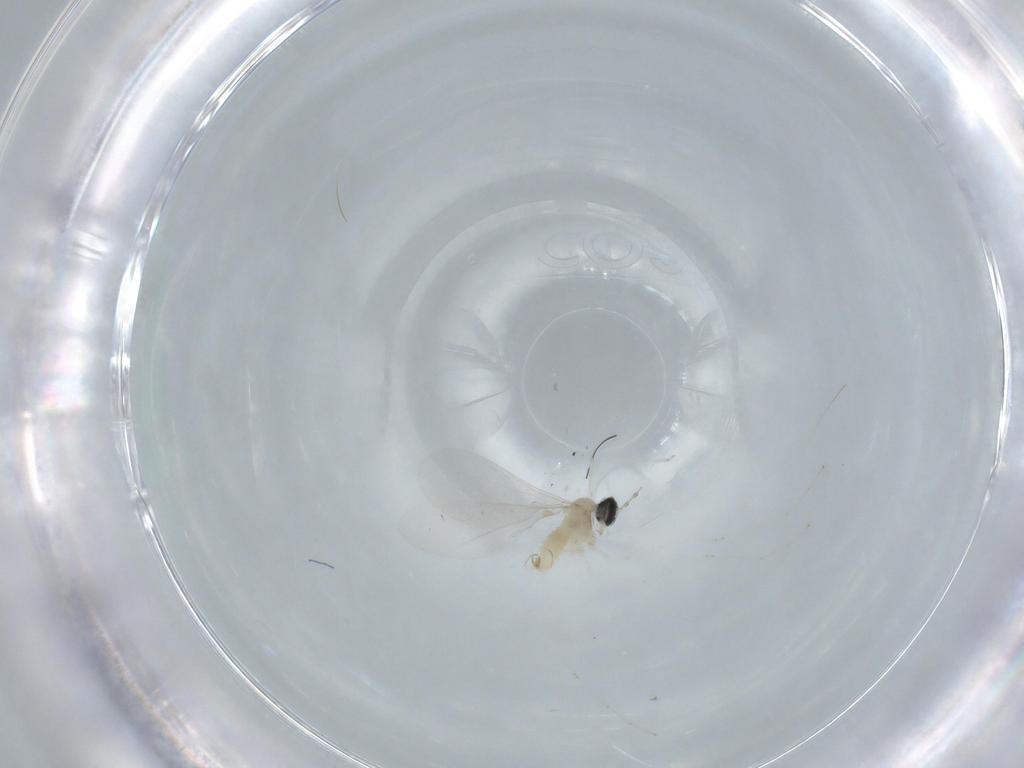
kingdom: Animalia
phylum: Arthropoda
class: Insecta
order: Diptera
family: Cecidomyiidae
